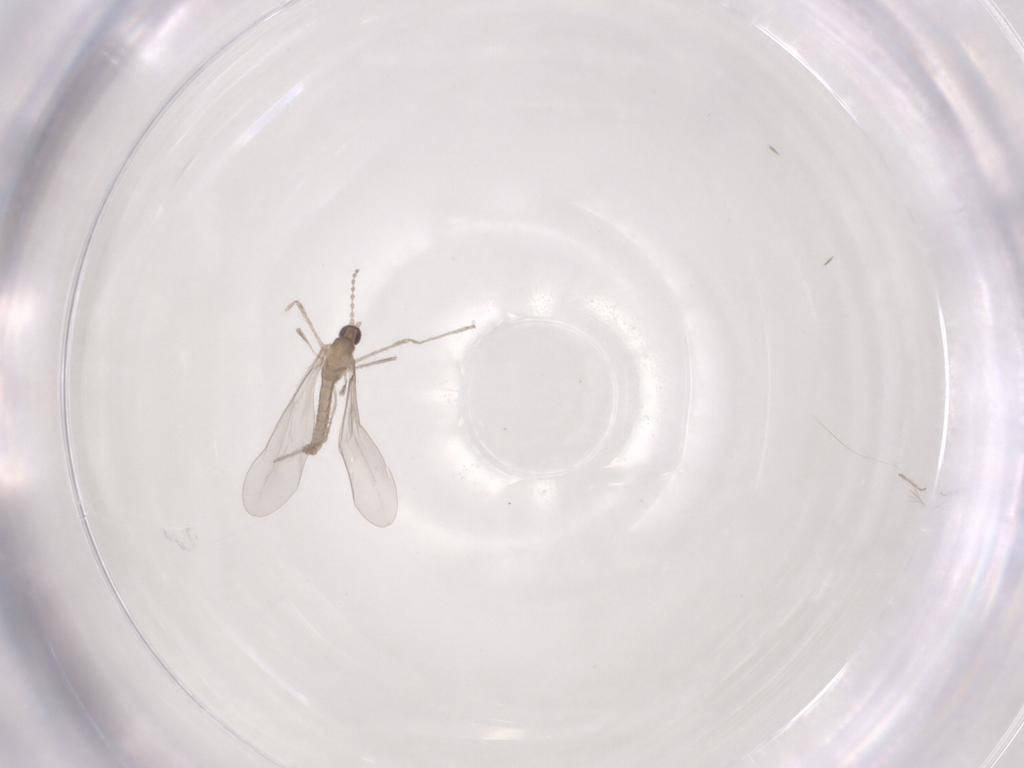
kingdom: Animalia
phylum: Arthropoda
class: Insecta
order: Diptera
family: Cecidomyiidae
